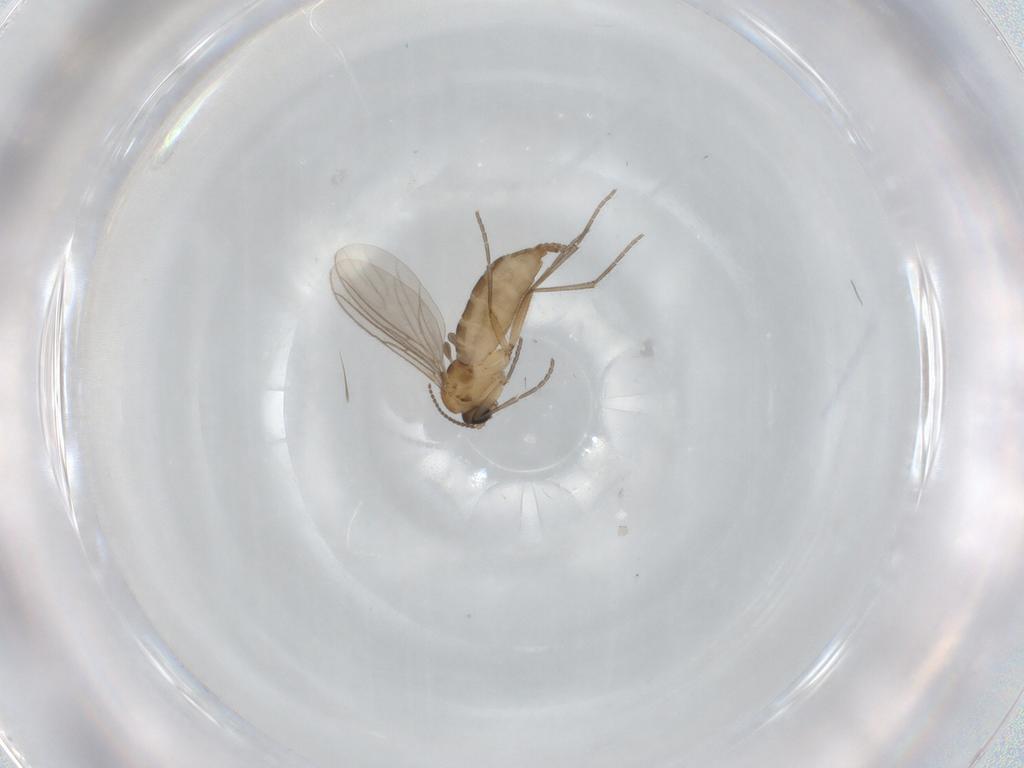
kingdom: Animalia
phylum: Arthropoda
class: Insecta
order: Diptera
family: Sciaridae
